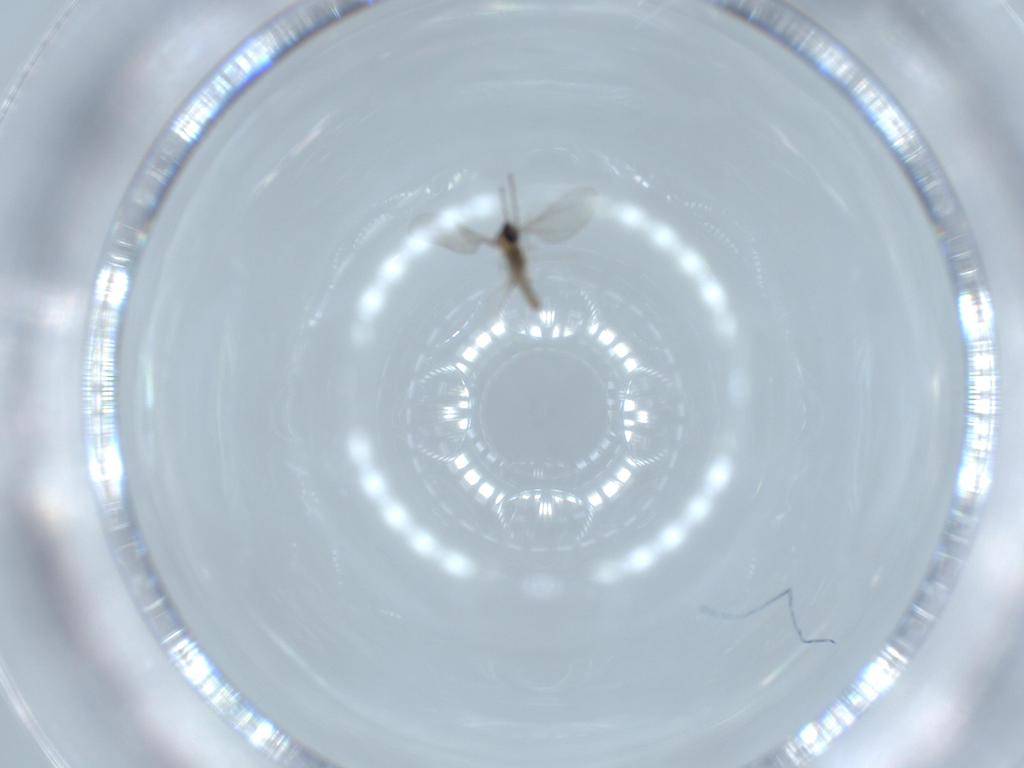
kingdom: Animalia
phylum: Arthropoda
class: Insecta
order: Diptera
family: Cecidomyiidae
